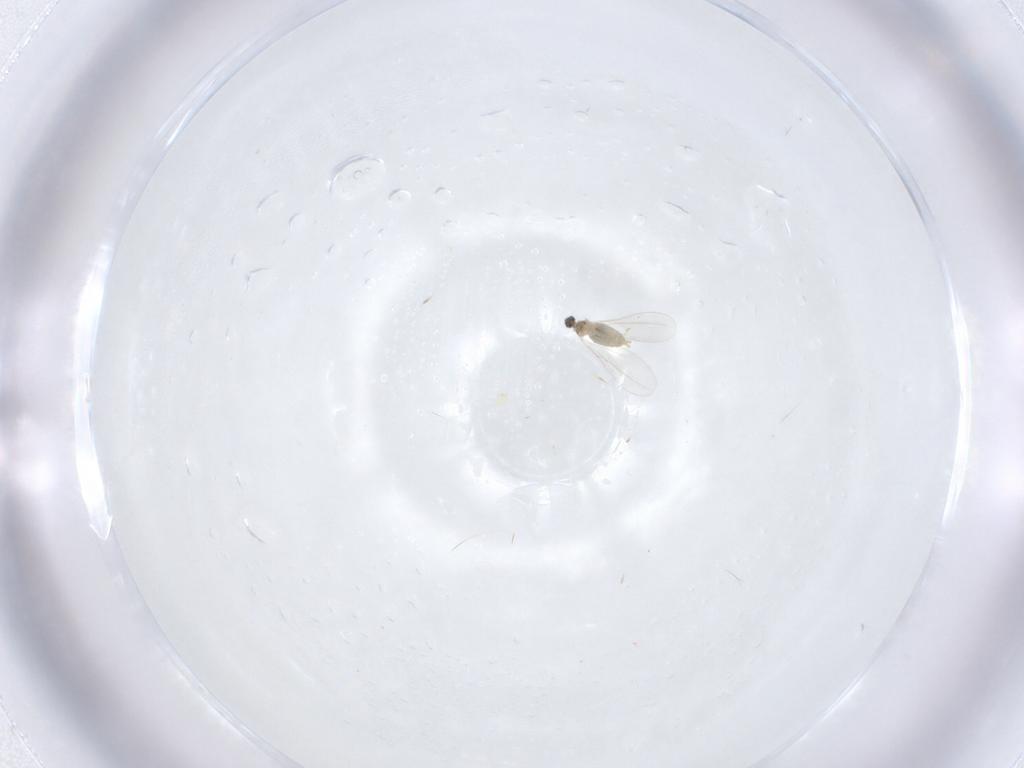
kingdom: Animalia
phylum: Arthropoda
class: Insecta
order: Diptera
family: Cecidomyiidae
